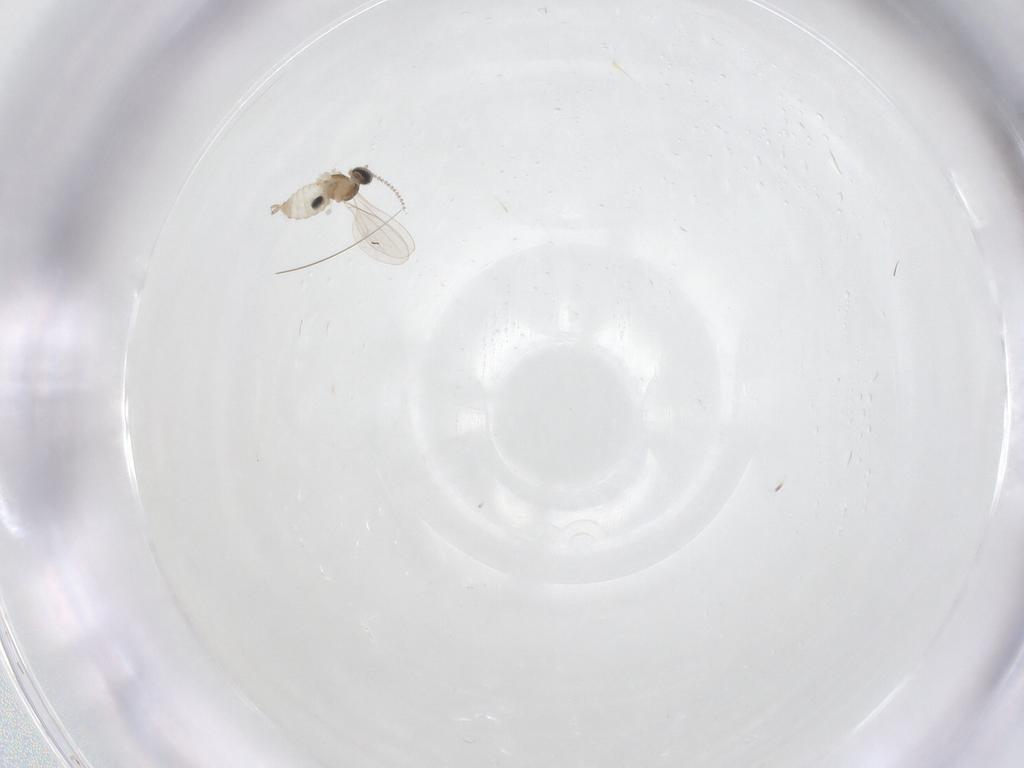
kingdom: Animalia
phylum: Arthropoda
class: Insecta
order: Diptera
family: Cecidomyiidae
